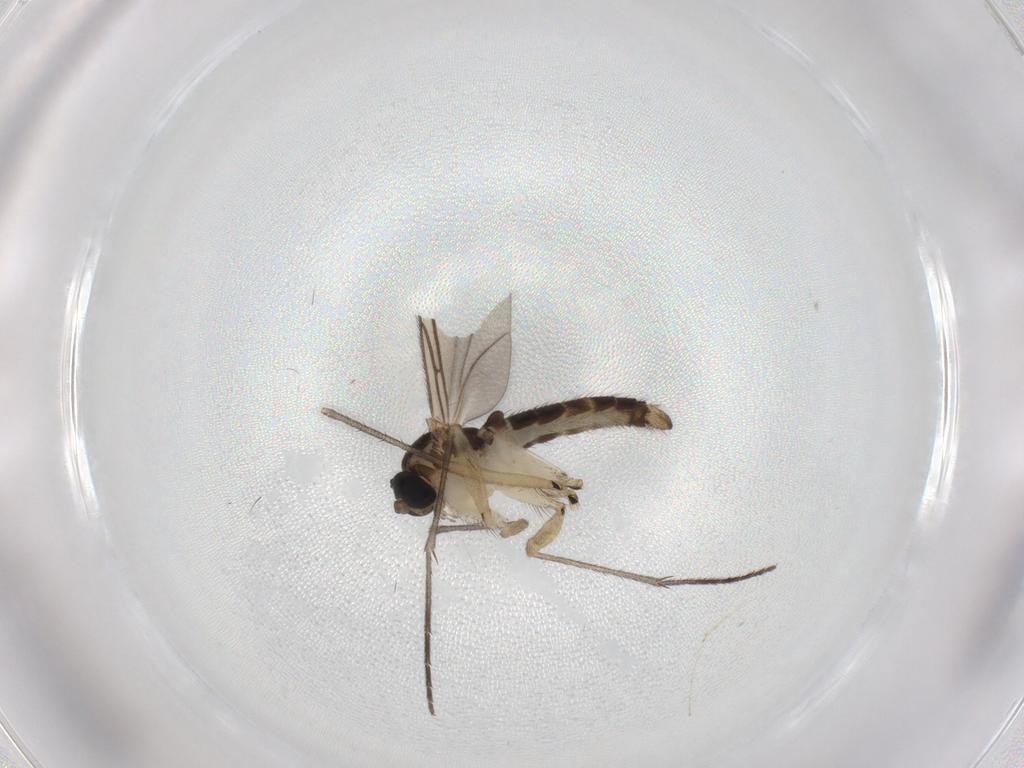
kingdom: Animalia
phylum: Arthropoda
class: Insecta
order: Diptera
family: Sciaridae
